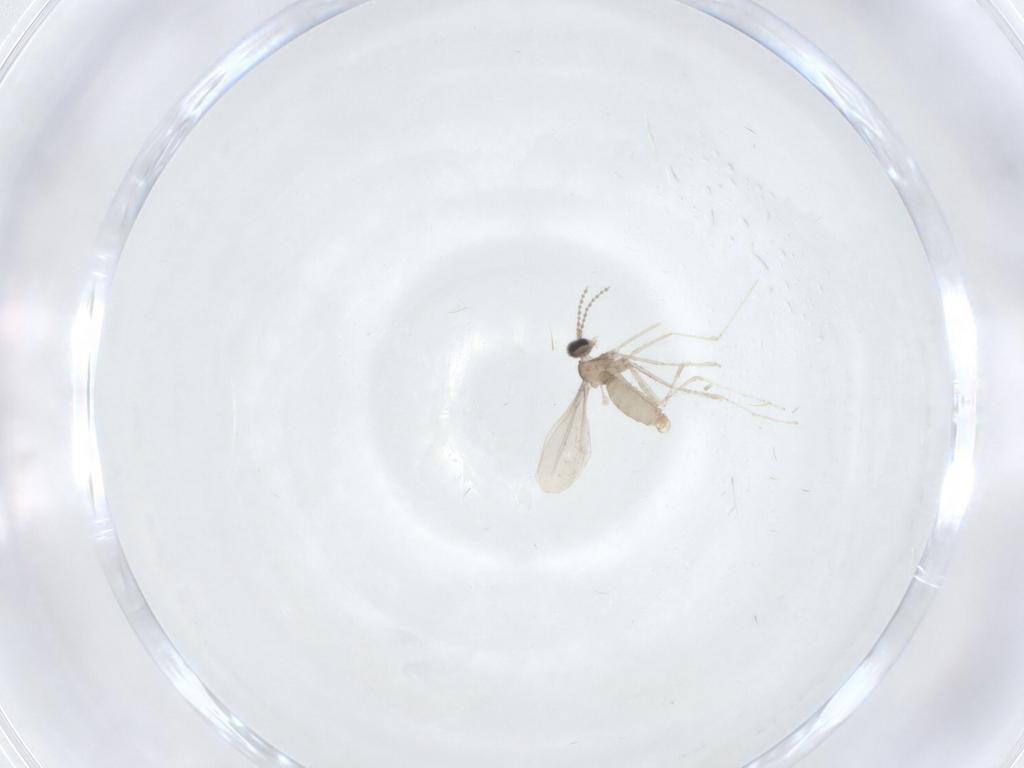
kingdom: Animalia
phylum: Arthropoda
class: Insecta
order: Diptera
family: Cecidomyiidae
